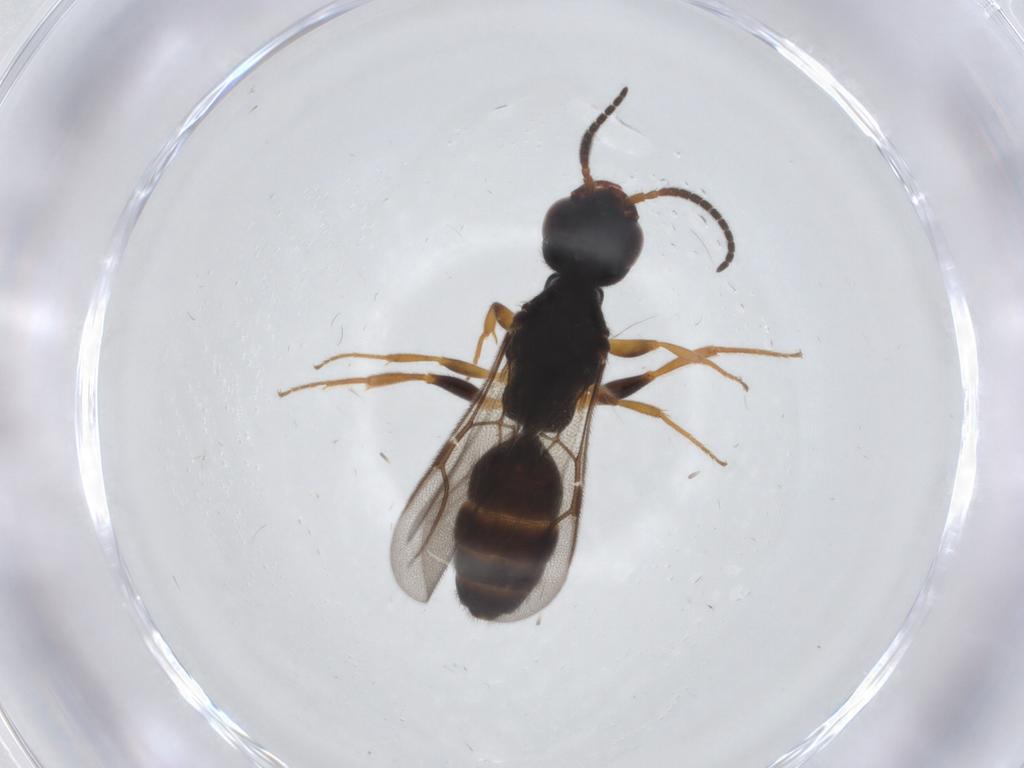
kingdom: Animalia
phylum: Arthropoda
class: Insecta
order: Hymenoptera
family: Bethylidae
